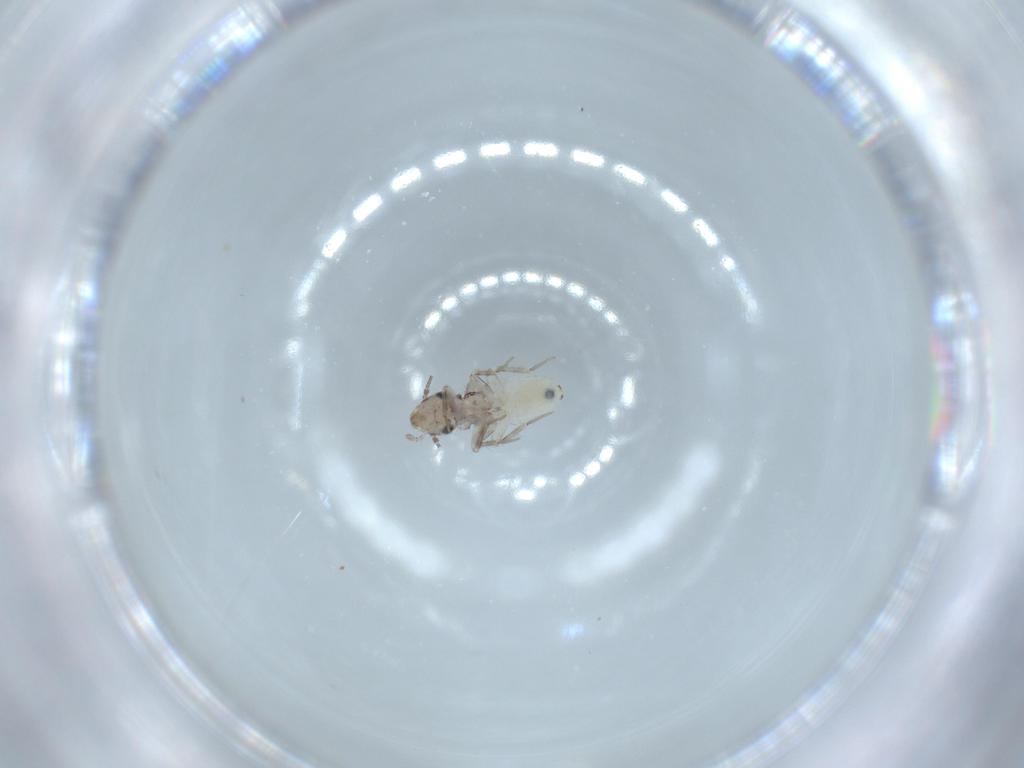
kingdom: Animalia
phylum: Arthropoda
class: Insecta
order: Psocodea
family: Lepidopsocidae
